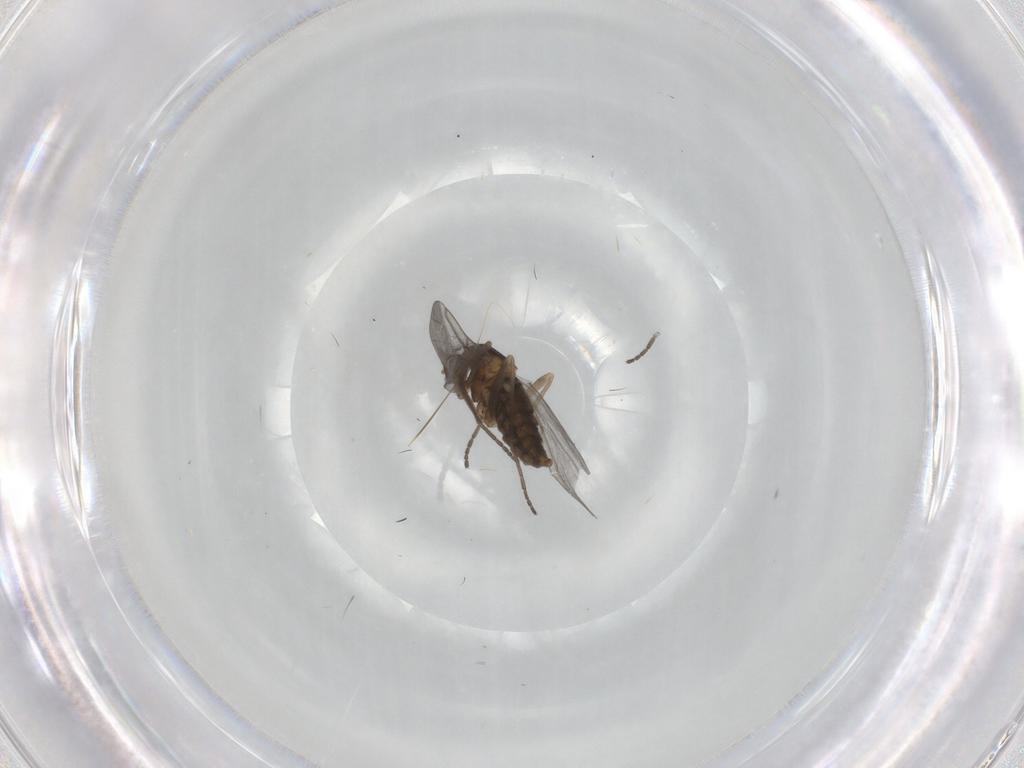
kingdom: Animalia
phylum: Arthropoda
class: Insecta
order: Diptera
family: Cecidomyiidae
